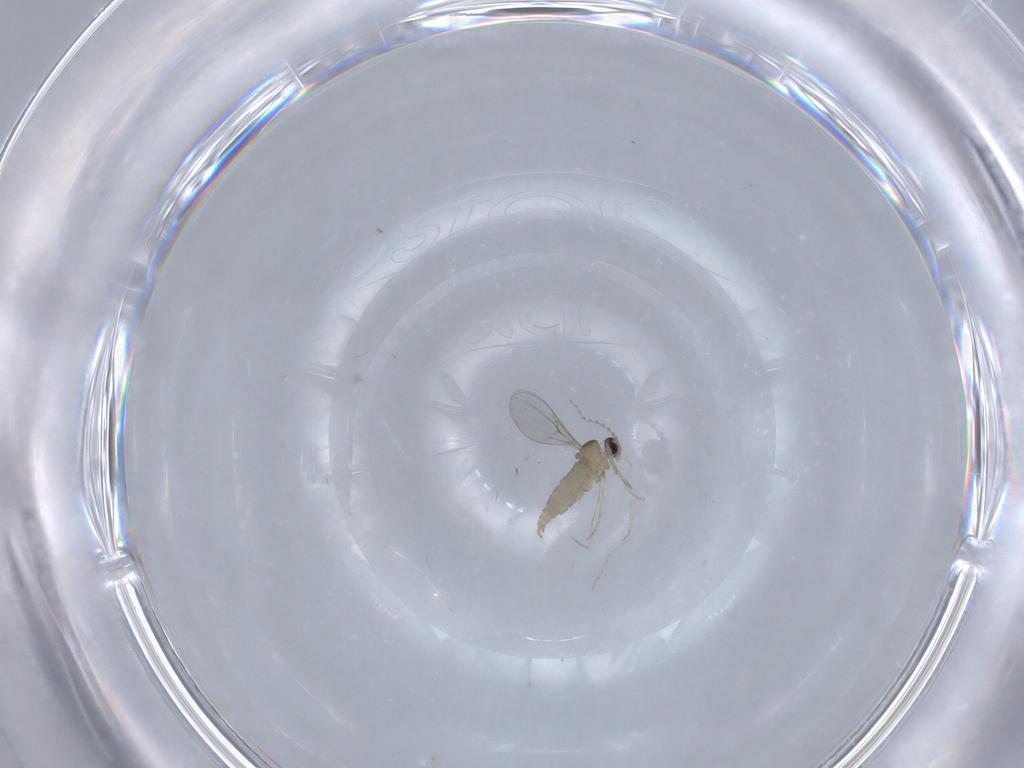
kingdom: Animalia
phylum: Arthropoda
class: Insecta
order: Diptera
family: Cecidomyiidae
